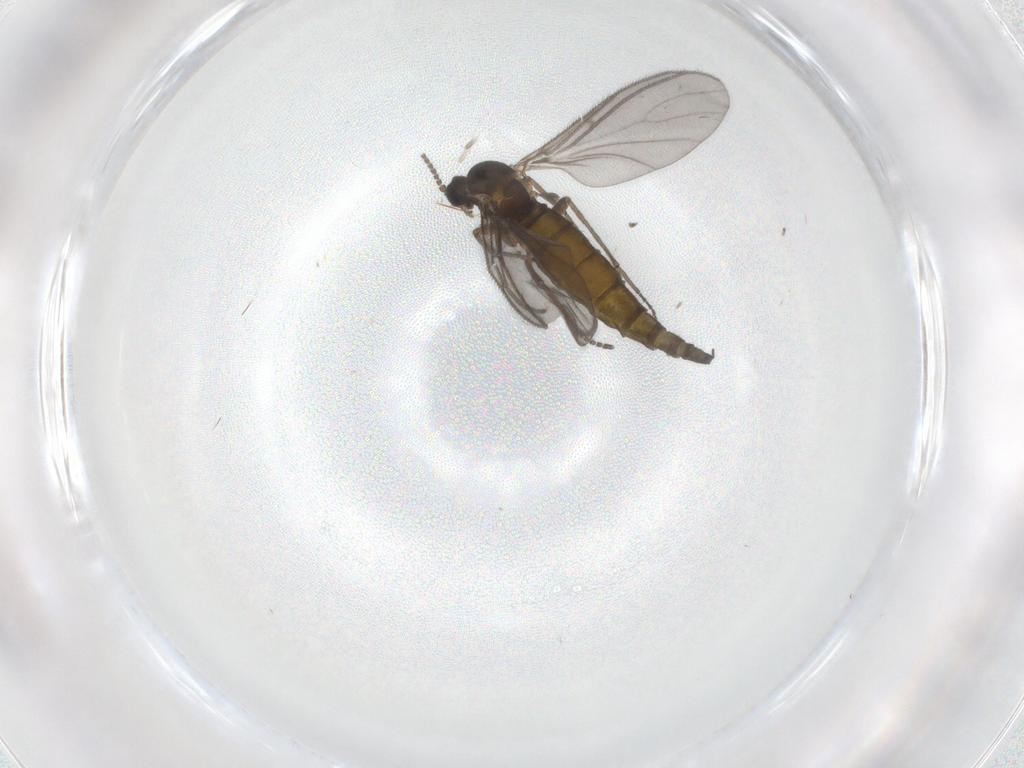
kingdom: Animalia
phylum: Arthropoda
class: Insecta
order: Diptera
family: Sciaridae
